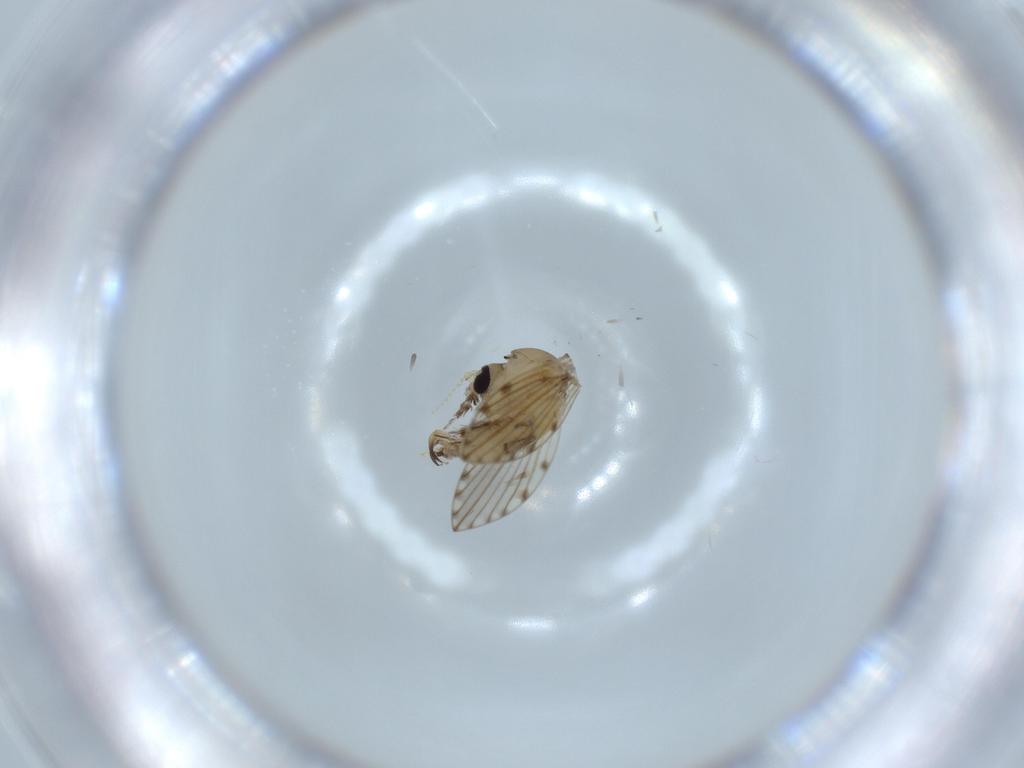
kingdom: Animalia
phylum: Arthropoda
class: Insecta
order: Diptera
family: Psychodidae
